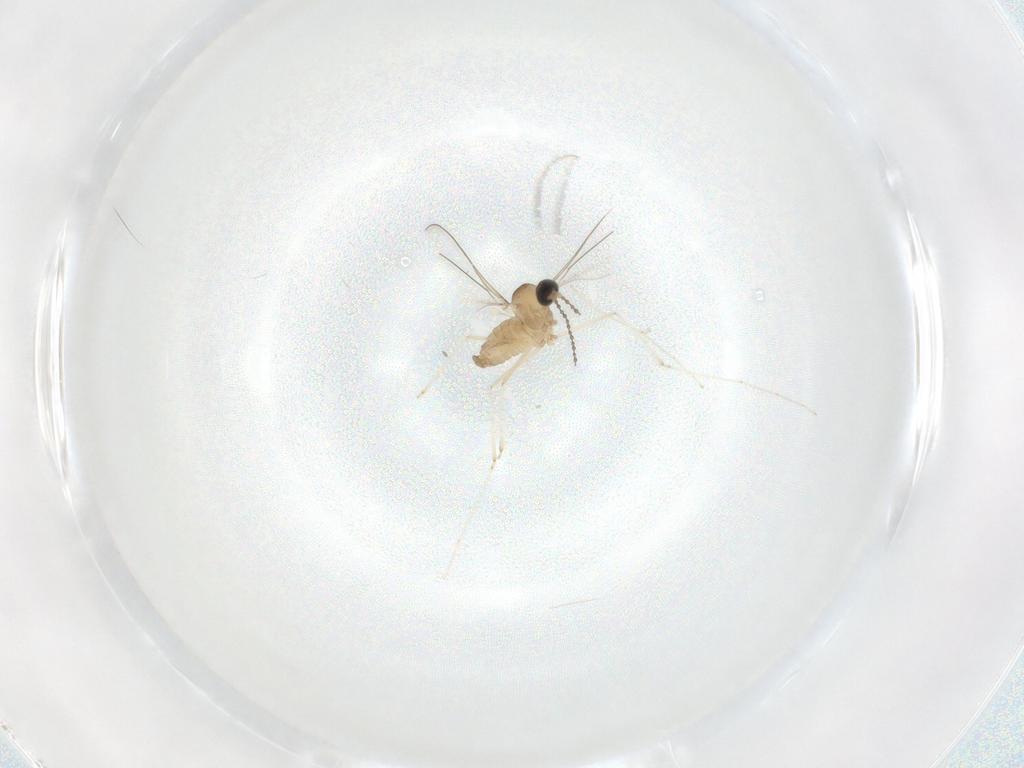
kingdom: Animalia
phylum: Arthropoda
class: Insecta
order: Diptera
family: Cecidomyiidae
